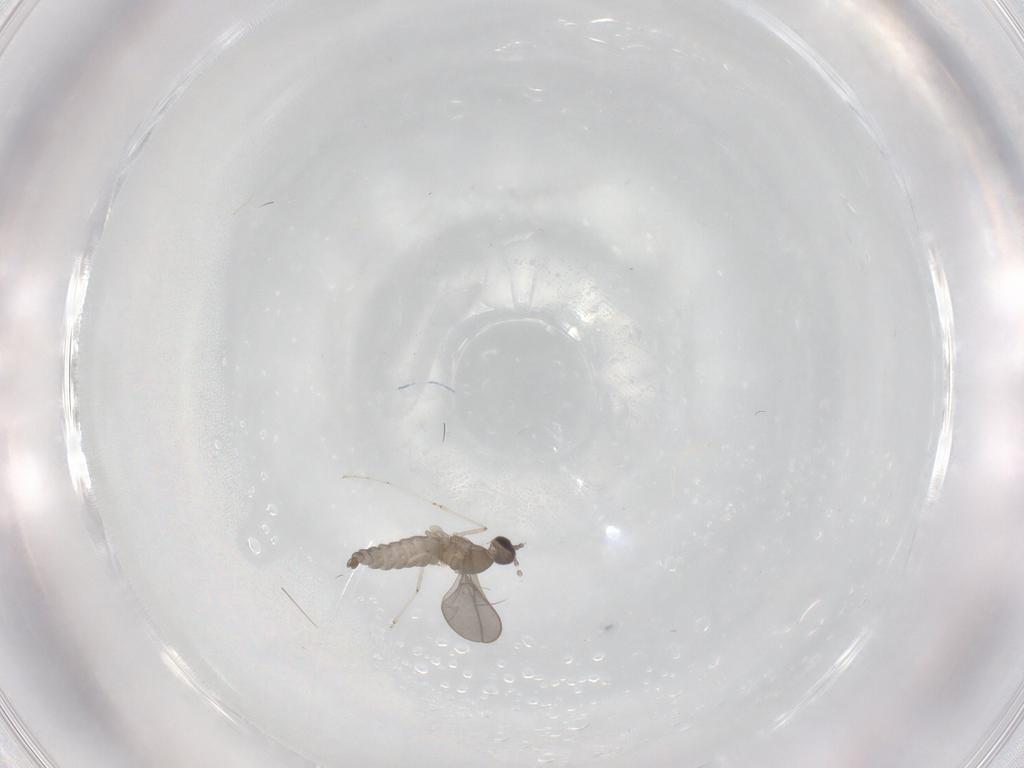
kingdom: Animalia
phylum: Arthropoda
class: Insecta
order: Diptera
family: Cecidomyiidae
